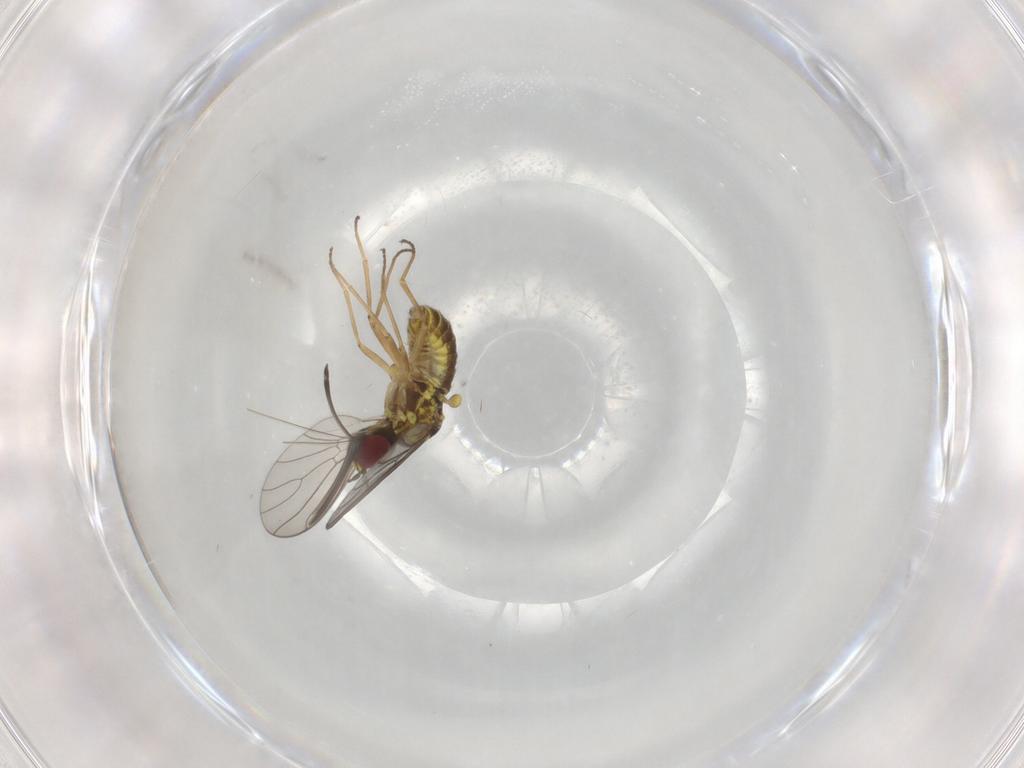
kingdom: Animalia
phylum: Arthropoda
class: Insecta
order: Diptera
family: Bombyliidae
